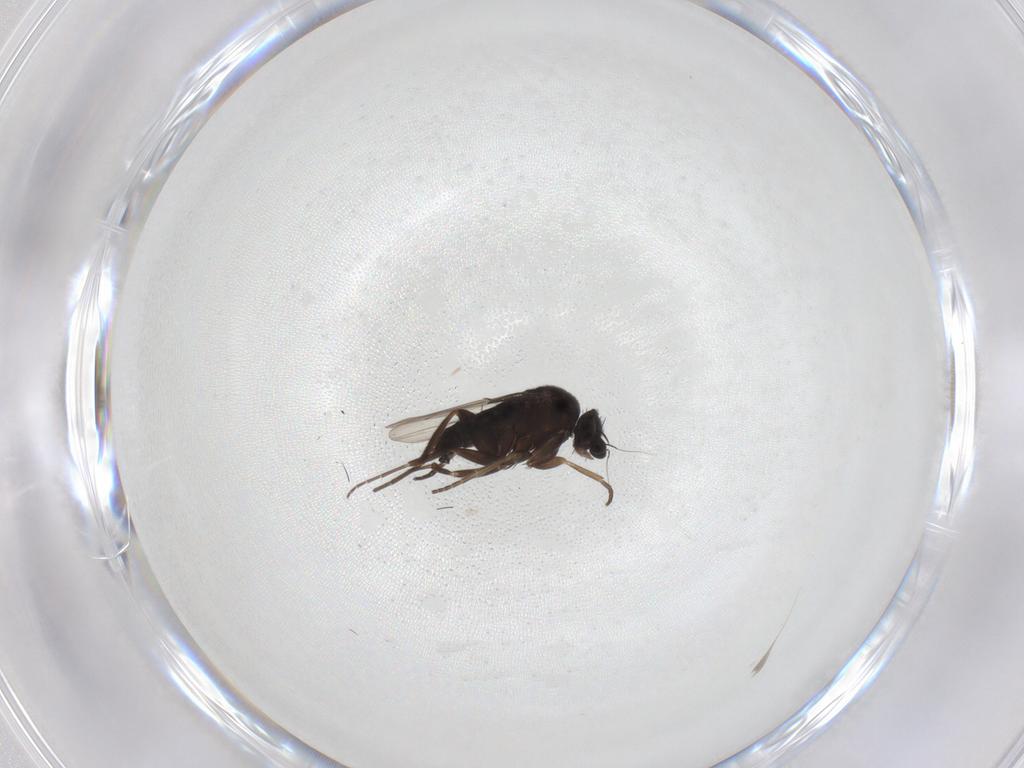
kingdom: Animalia
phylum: Arthropoda
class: Insecta
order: Diptera
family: Phoridae
